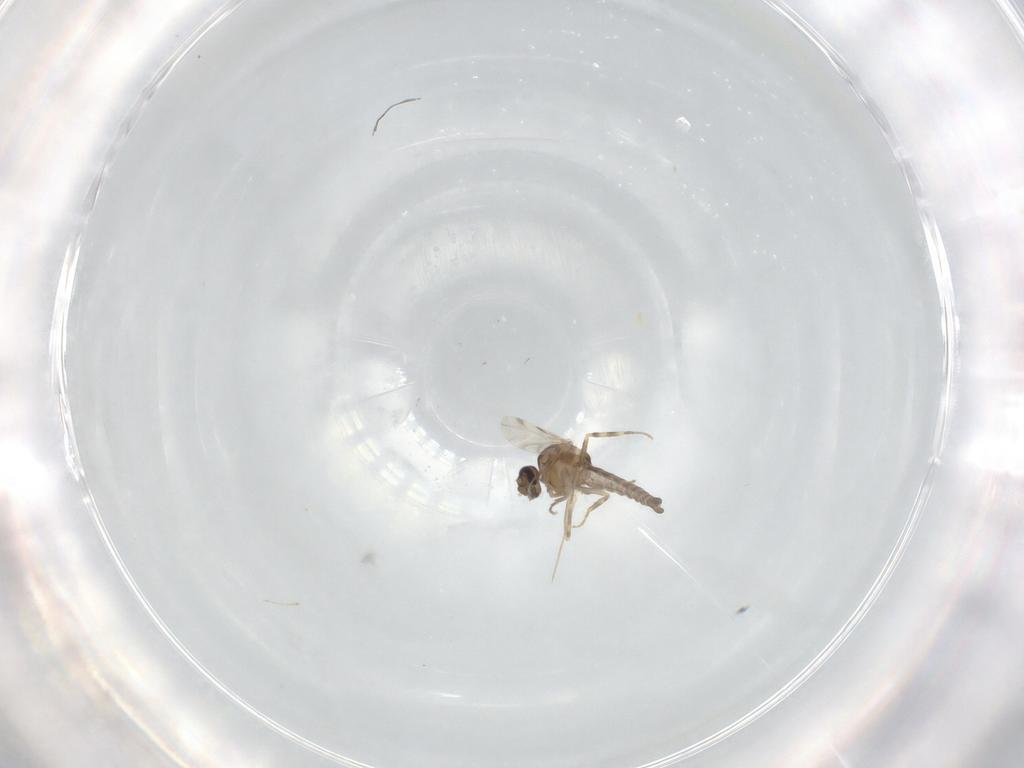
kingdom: Animalia
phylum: Arthropoda
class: Insecta
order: Diptera
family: Ceratopogonidae
